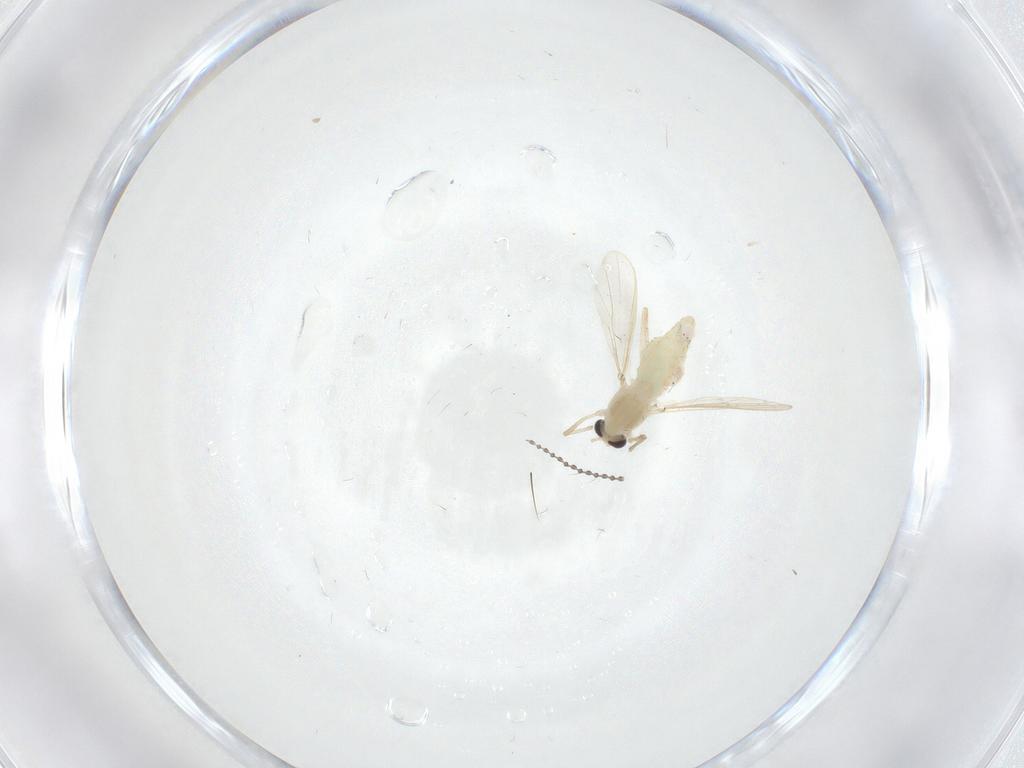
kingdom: Animalia
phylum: Arthropoda
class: Insecta
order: Diptera
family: Chironomidae
